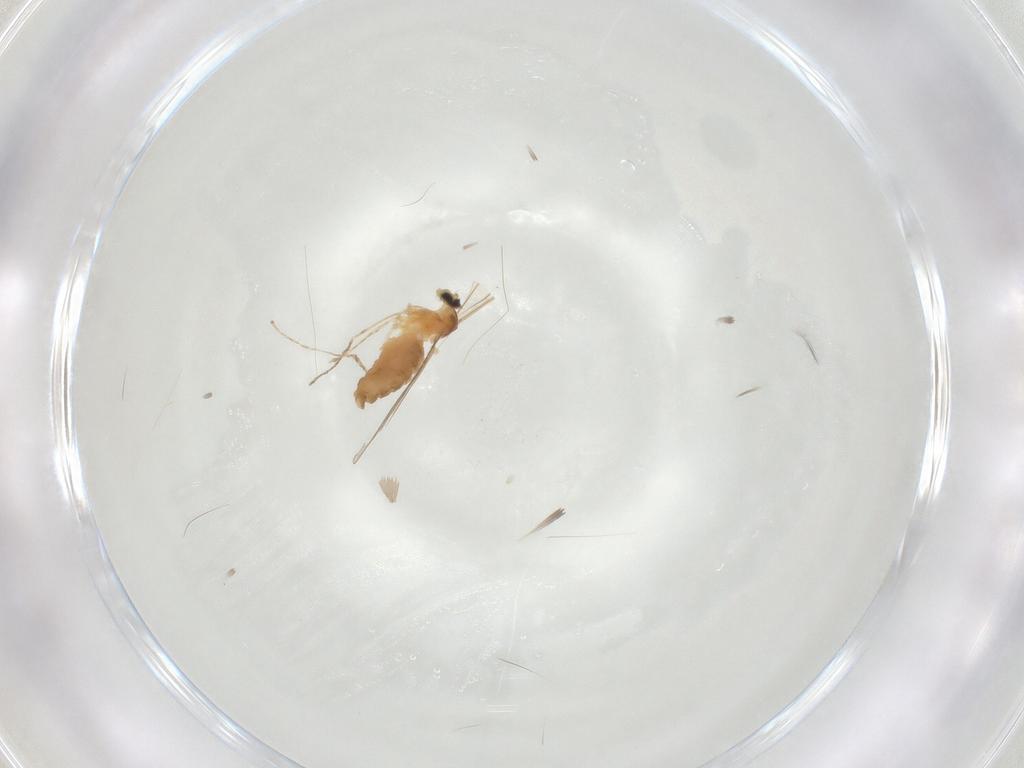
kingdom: Animalia
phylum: Arthropoda
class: Insecta
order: Diptera
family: Cecidomyiidae
